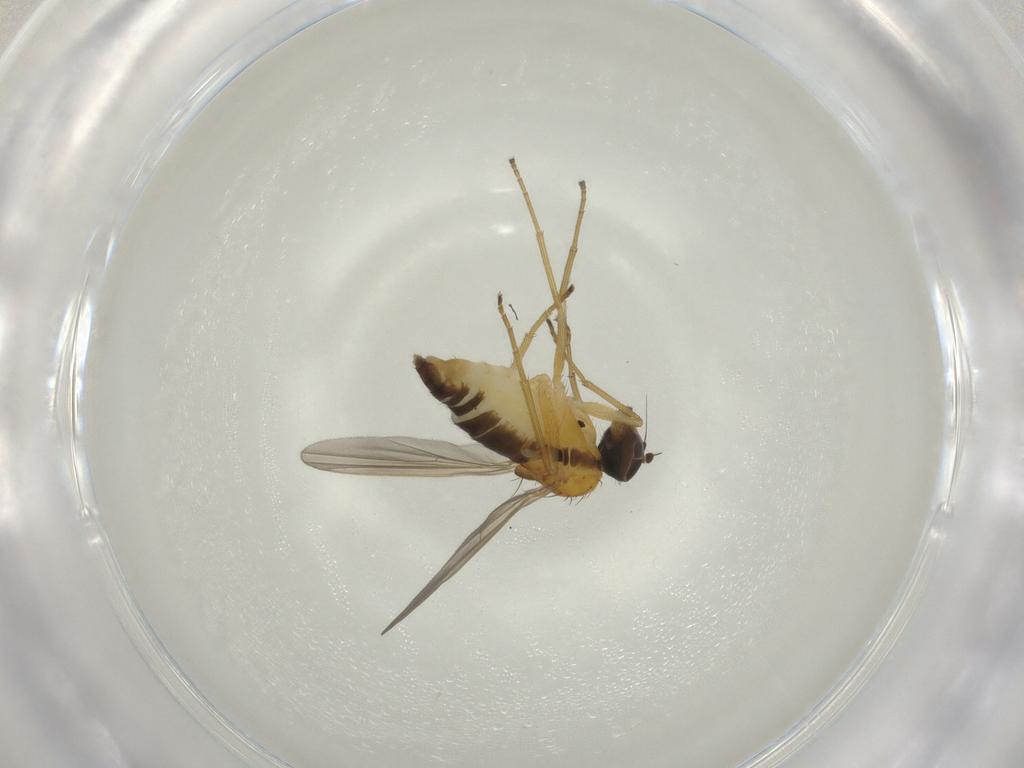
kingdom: Animalia
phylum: Arthropoda
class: Insecta
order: Diptera
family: Dolichopodidae
